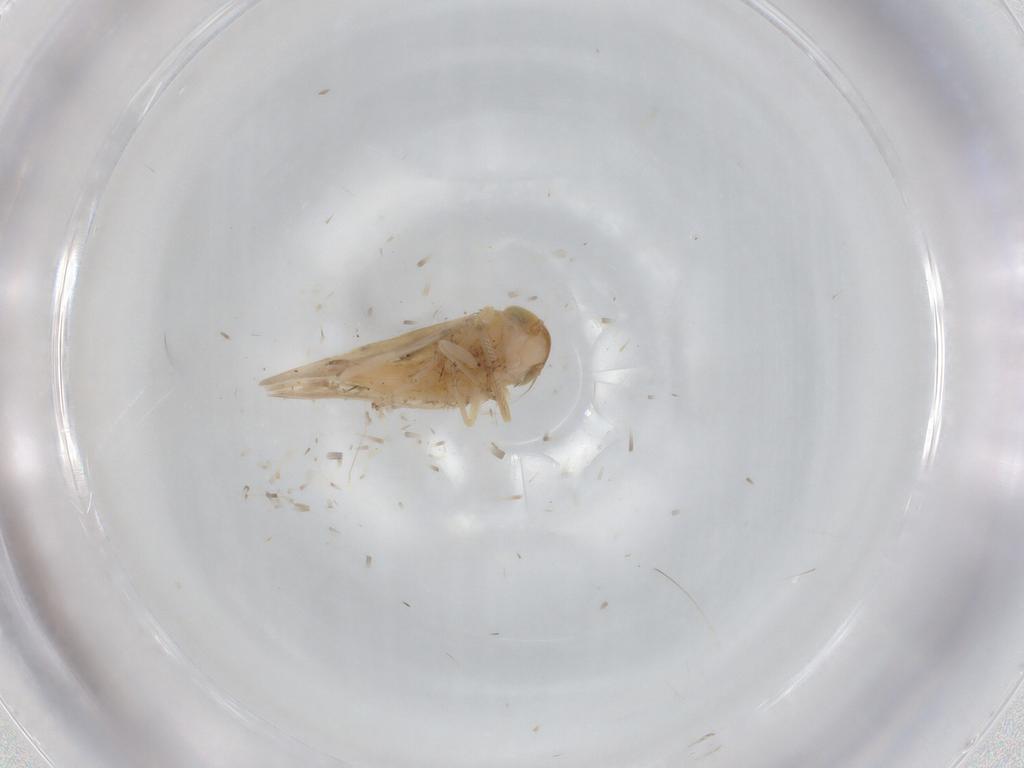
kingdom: Animalia
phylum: Arthropoda
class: Insecta
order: Hemiptera
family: Cicadellidae
